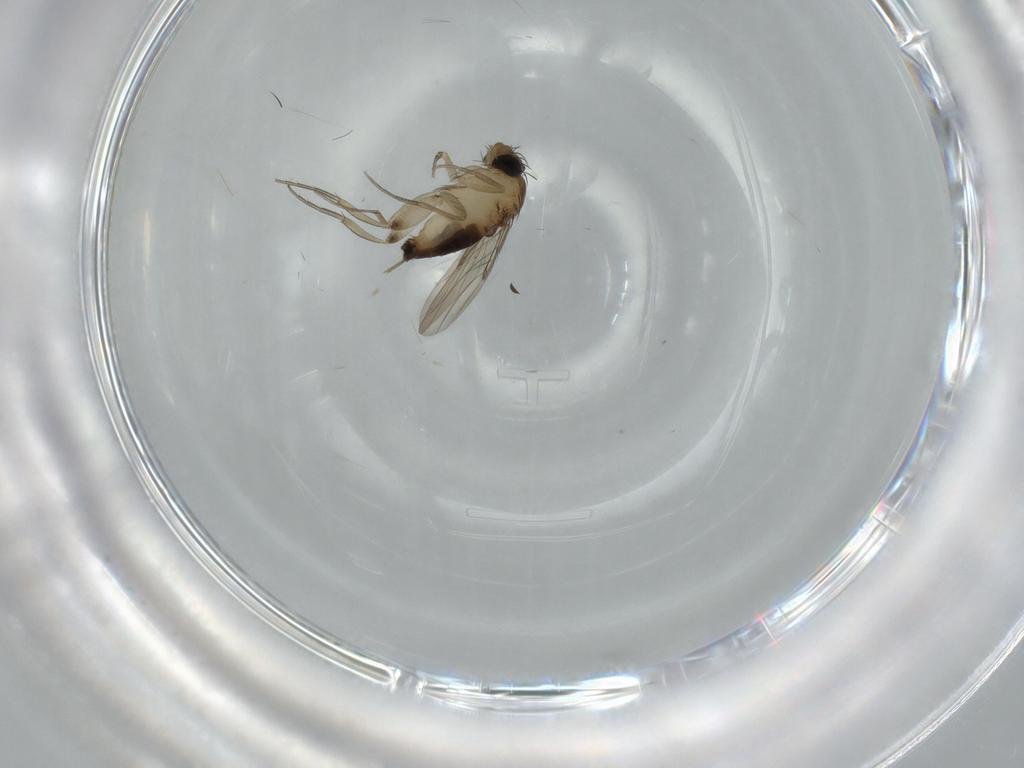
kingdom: Animalia
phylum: Arthropoda
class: Insecta
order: Diptera
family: Phoridae
